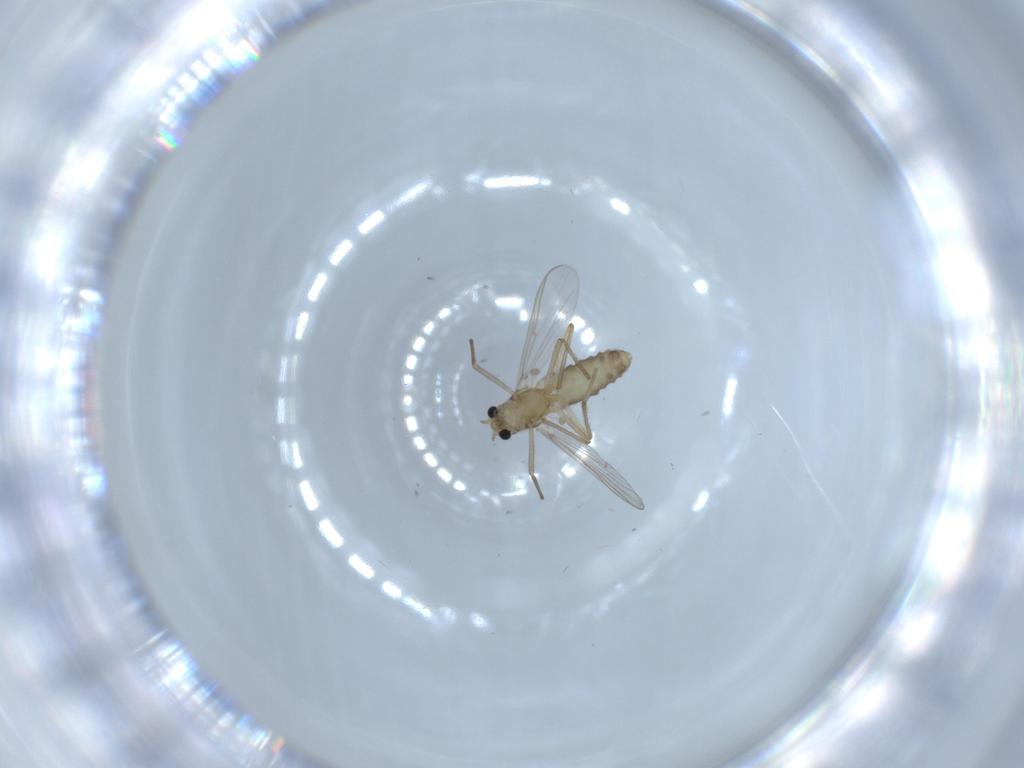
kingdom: Animalia
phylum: Arthropoda
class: Insecta
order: Diptera
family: Chironomidae
